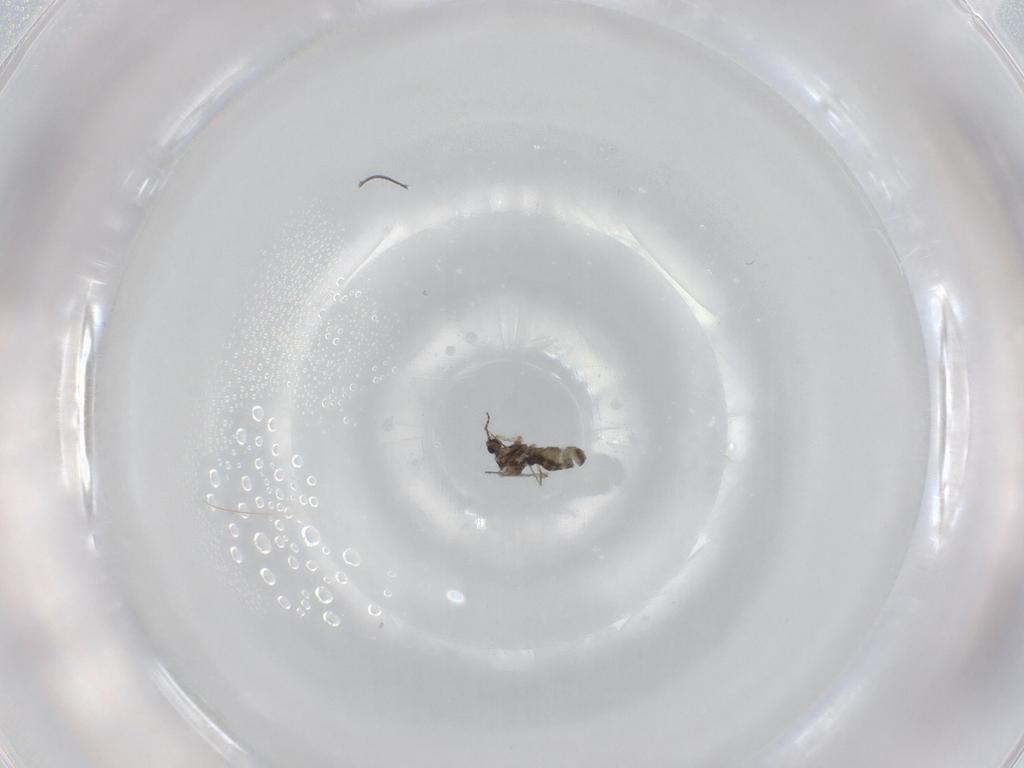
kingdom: Animalia
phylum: Arthropoda
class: Insecta
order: Diptera
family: Cecidomyiidae
